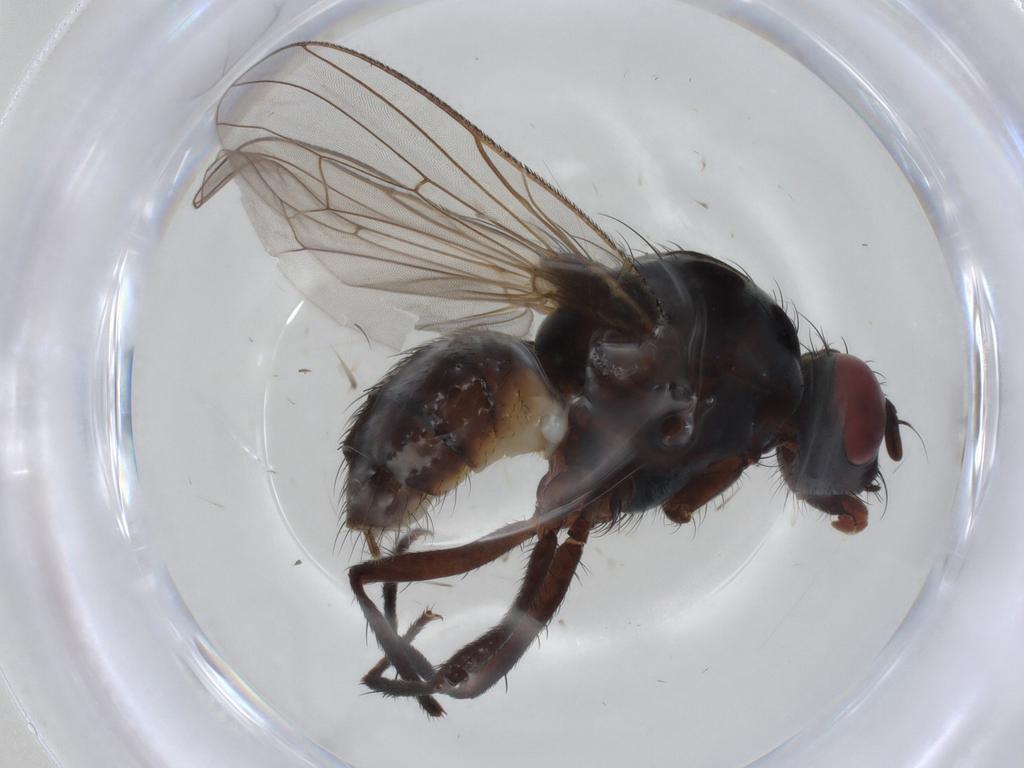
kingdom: Animalia
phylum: Arthropoda
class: Insecta
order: Diptera
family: Anthomyiidae
